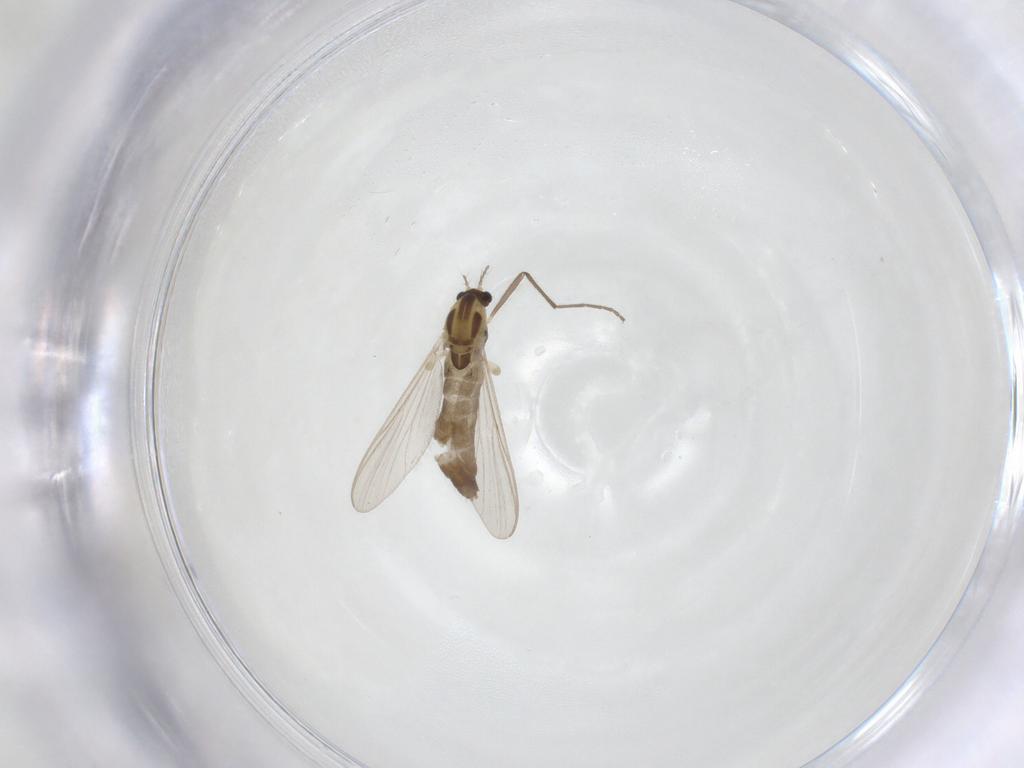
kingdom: Animalia
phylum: Arthropoda
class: Insecta
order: Diptera
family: Chironomidae
